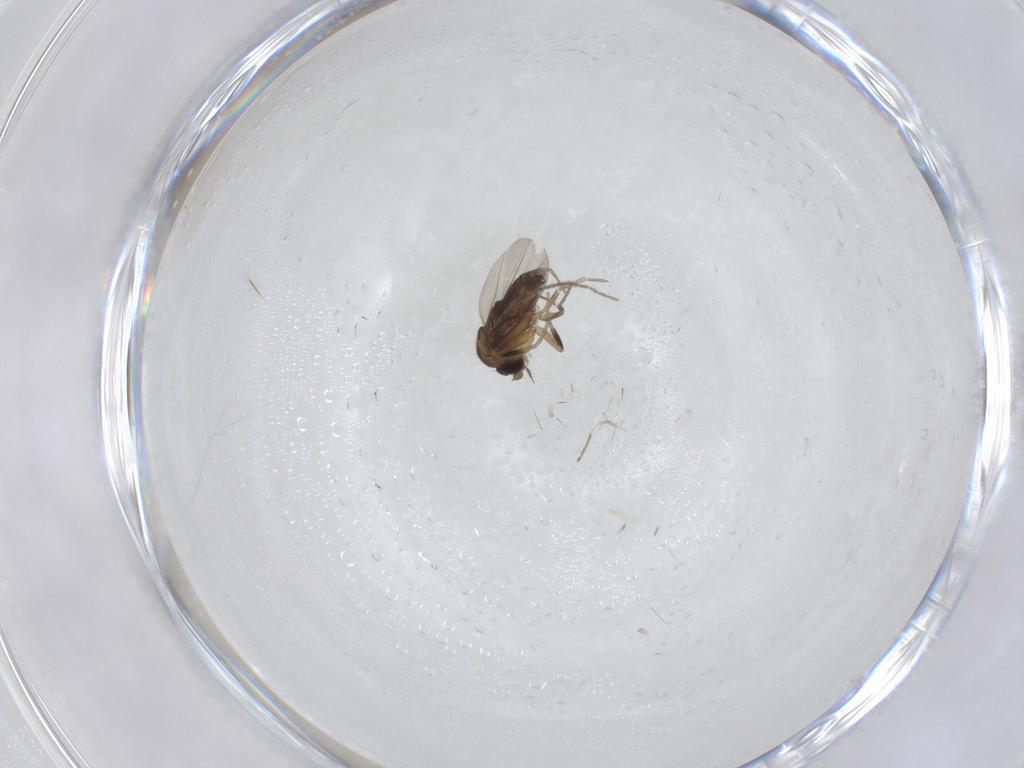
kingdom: Animalia
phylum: Arthropoda
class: Insecta
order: Diptera
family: Phoridae
